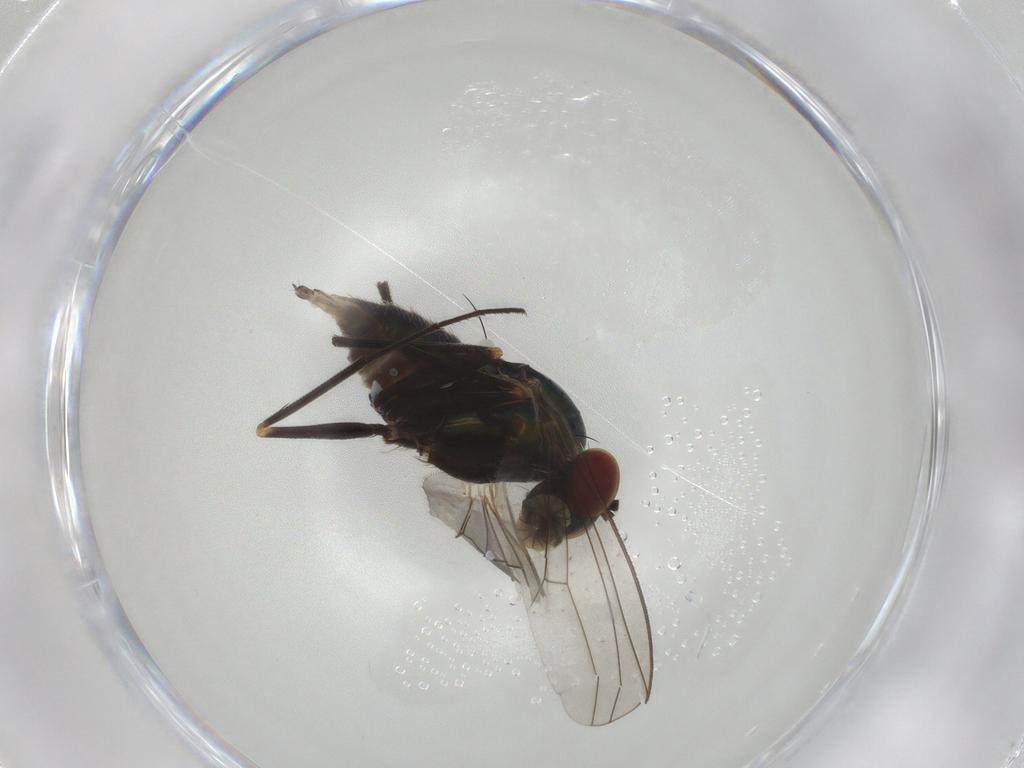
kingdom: Animalia
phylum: Arthropoda
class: Insecta
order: Diptera
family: Dolichopodidae
